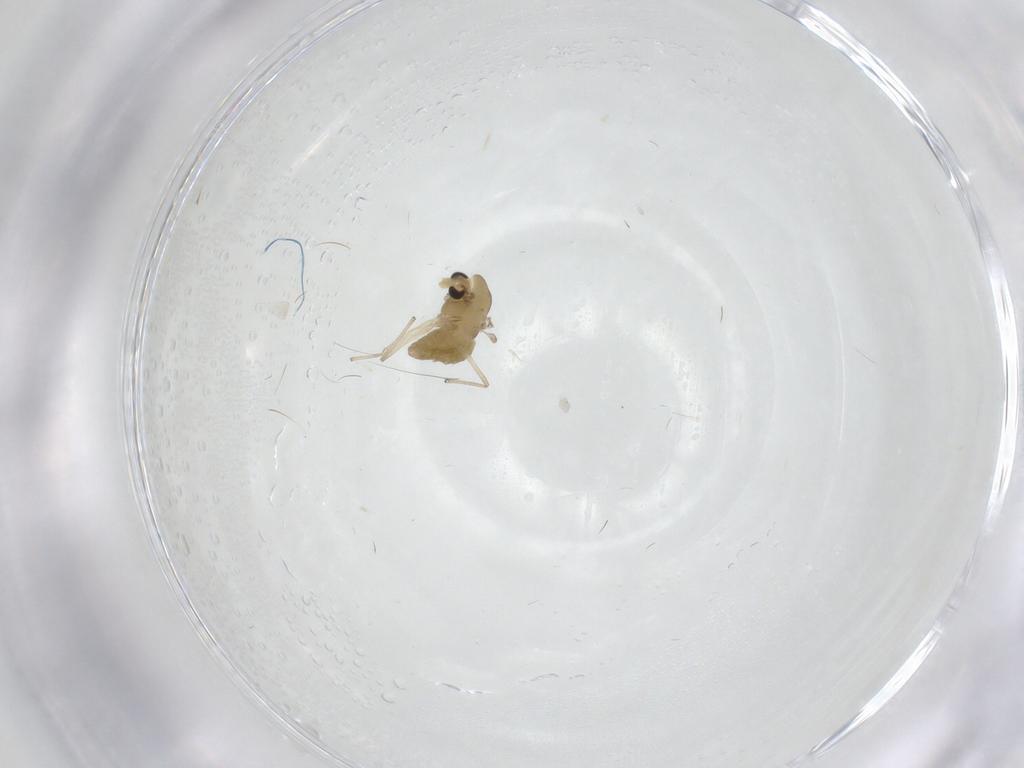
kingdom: Animalia
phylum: Arthropoda
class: Insecta
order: Diptera
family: Chironomidae
